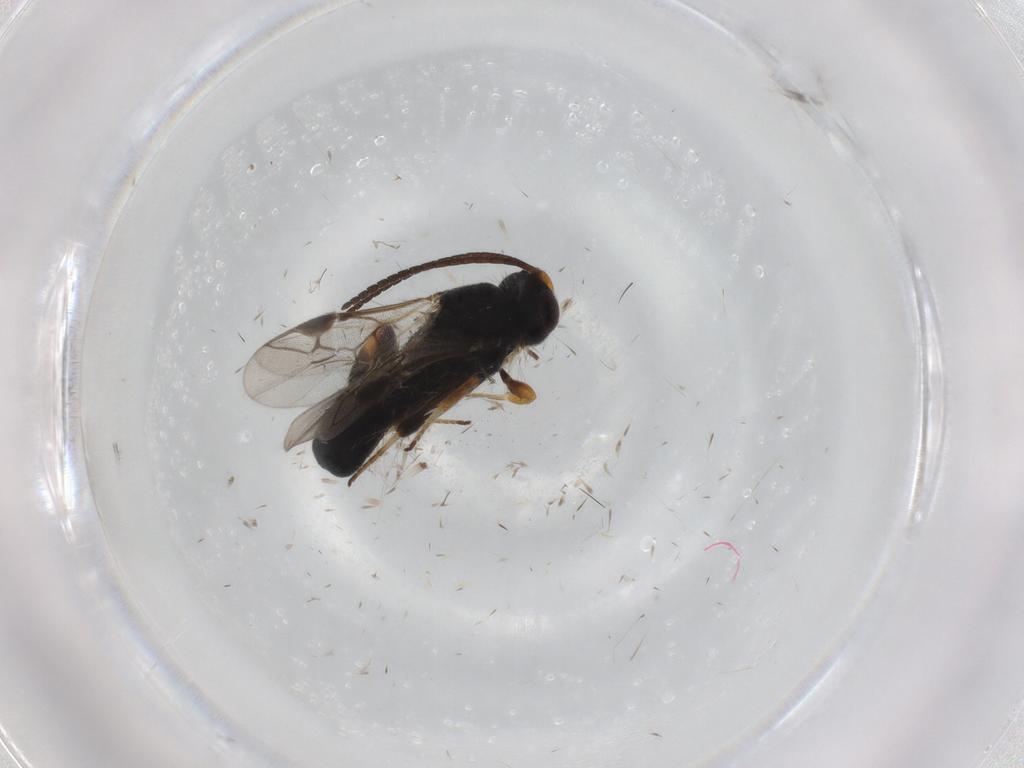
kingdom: Animalia
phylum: Arthropoda
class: Insecta
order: Hymenoptera
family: Braconidae
